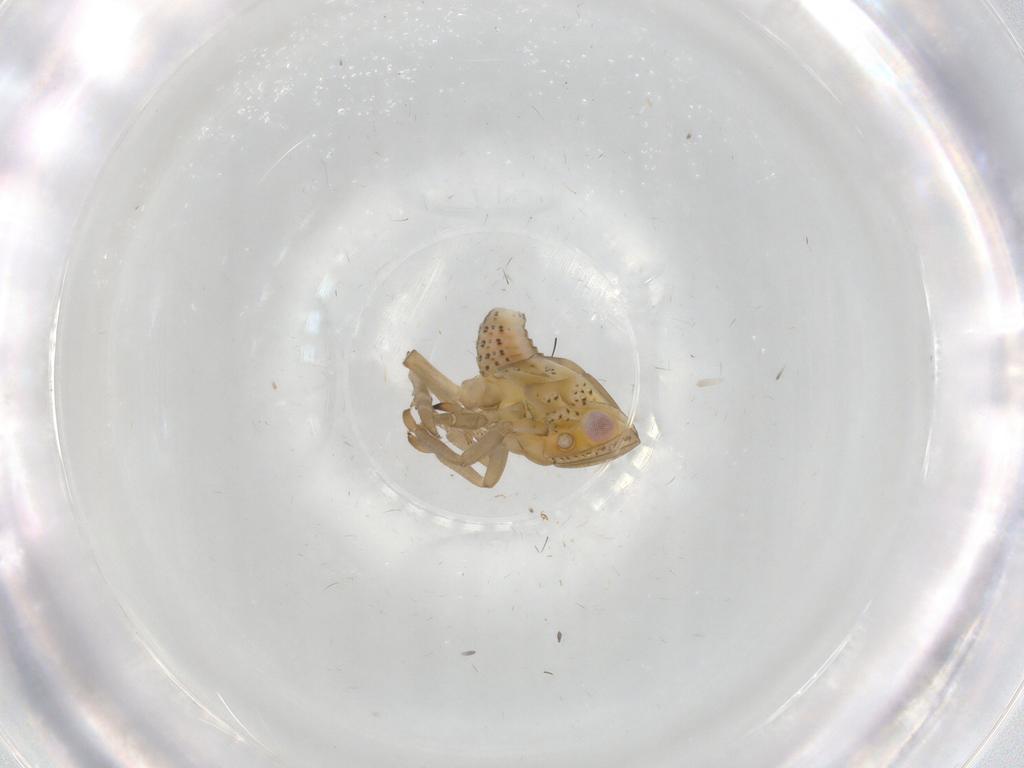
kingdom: Animalia
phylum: Arthropoda
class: Insecta
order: Hemiptera
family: Tropiduchidae
